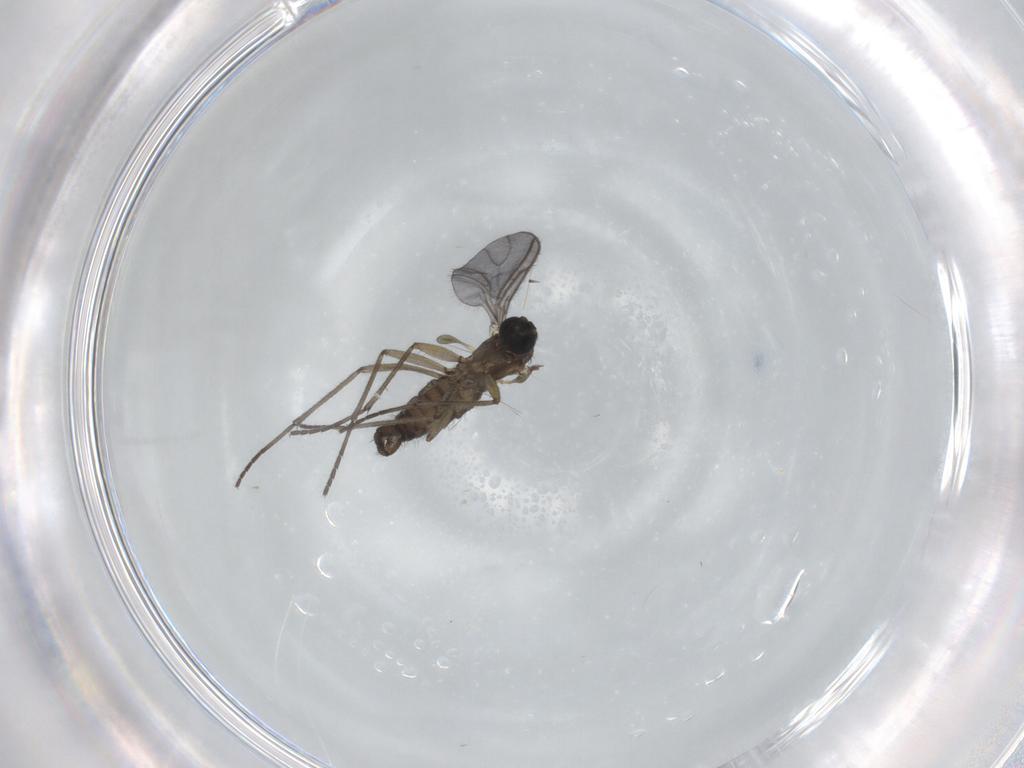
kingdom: Animalia
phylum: Arthropoda
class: Insecta
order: Diptera
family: Sciaridae
